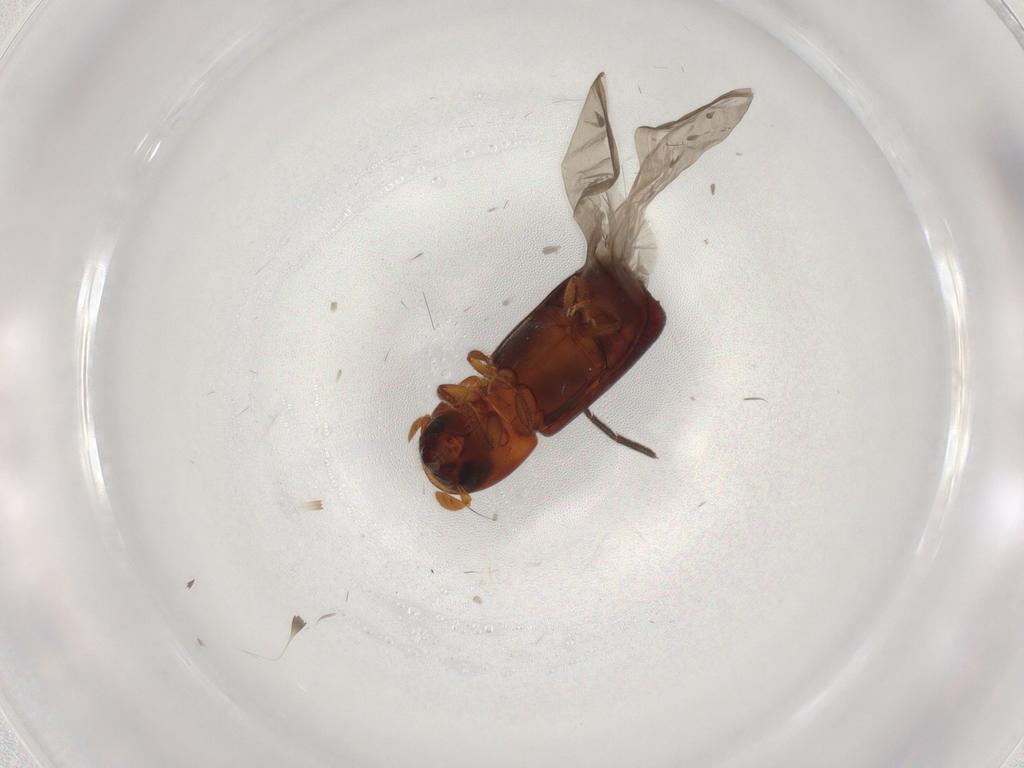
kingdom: Animalia
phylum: Arthropoda
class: Insecta
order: Coleoptera
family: Curculionidae
